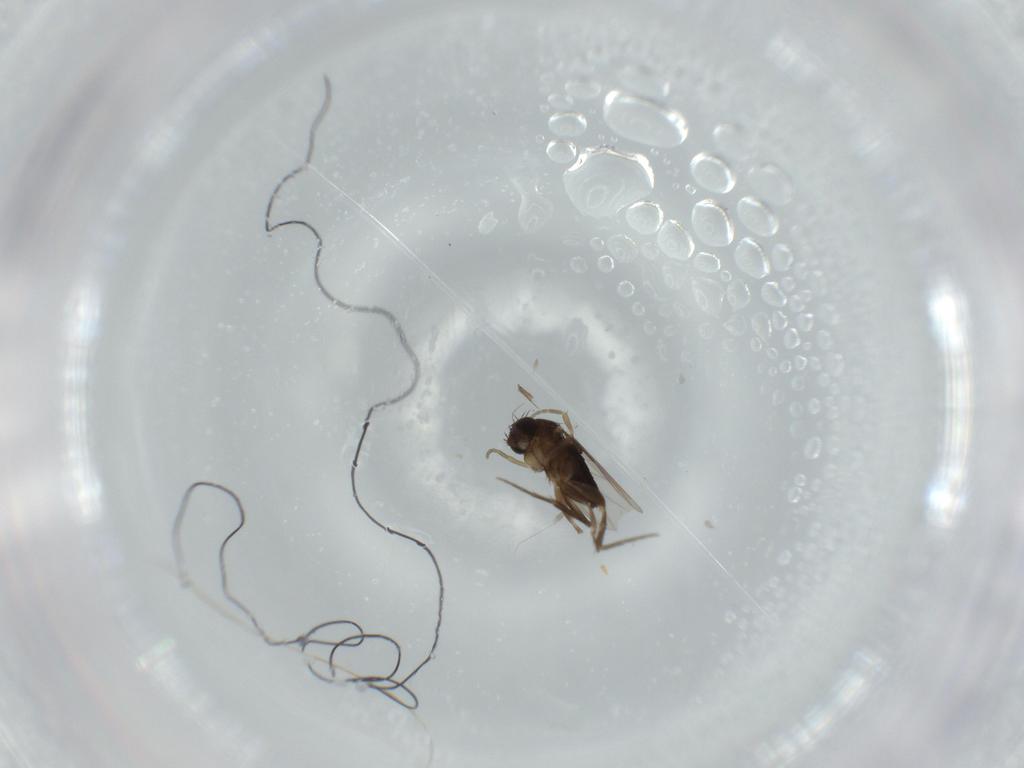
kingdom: Animalia
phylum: Arthropoda
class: Insecta
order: Diptera
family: Phoridae
